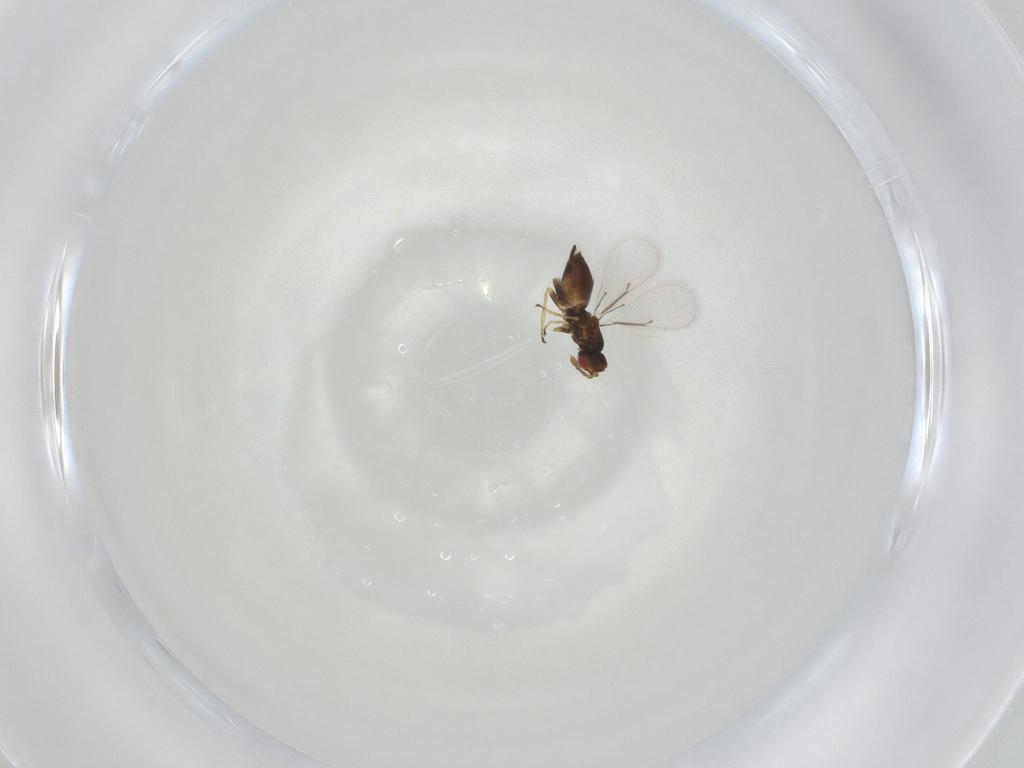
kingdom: Animalia
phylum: Arthropoda
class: Insecta
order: Hymenoptera
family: Eulophidae
